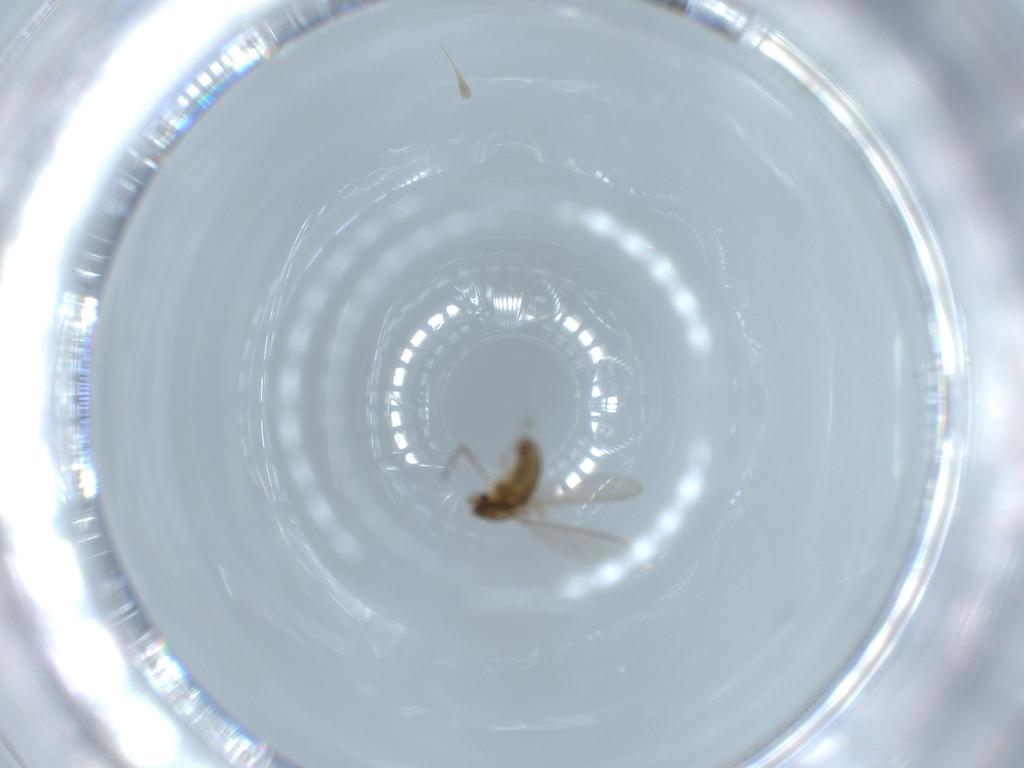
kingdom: Animalia
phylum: Arthropoda
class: Insecta
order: Diptera
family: Chironomidae
